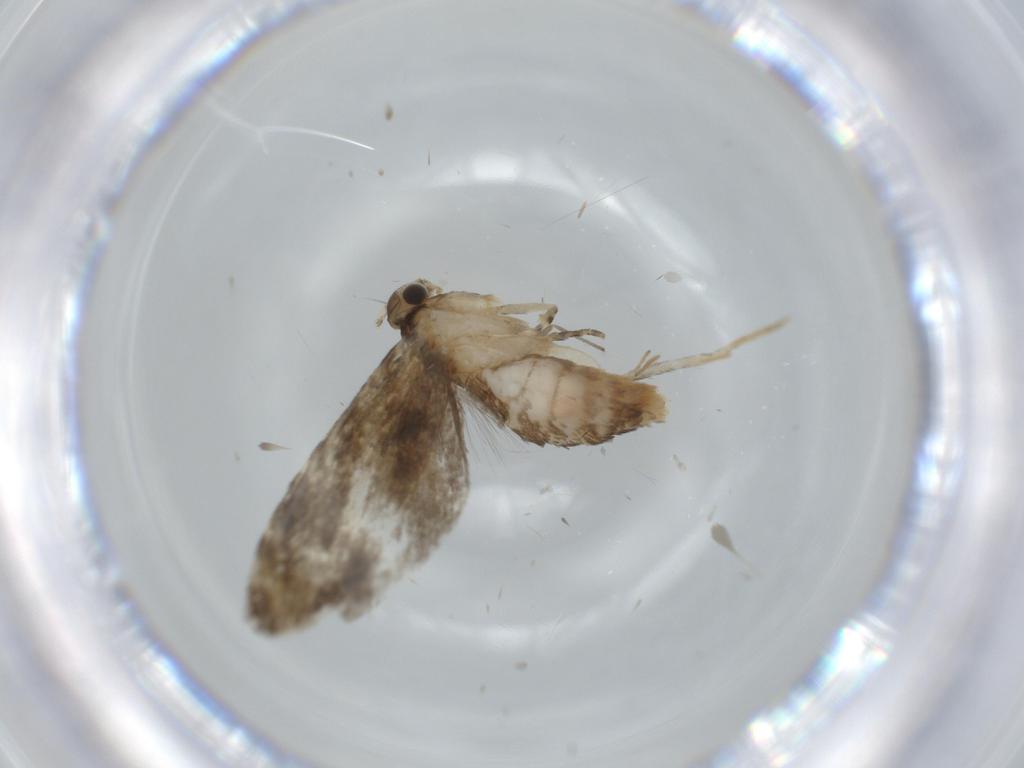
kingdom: Animalia
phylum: Arthropoda
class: Insecta
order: Lepidoptera
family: Tineidae
